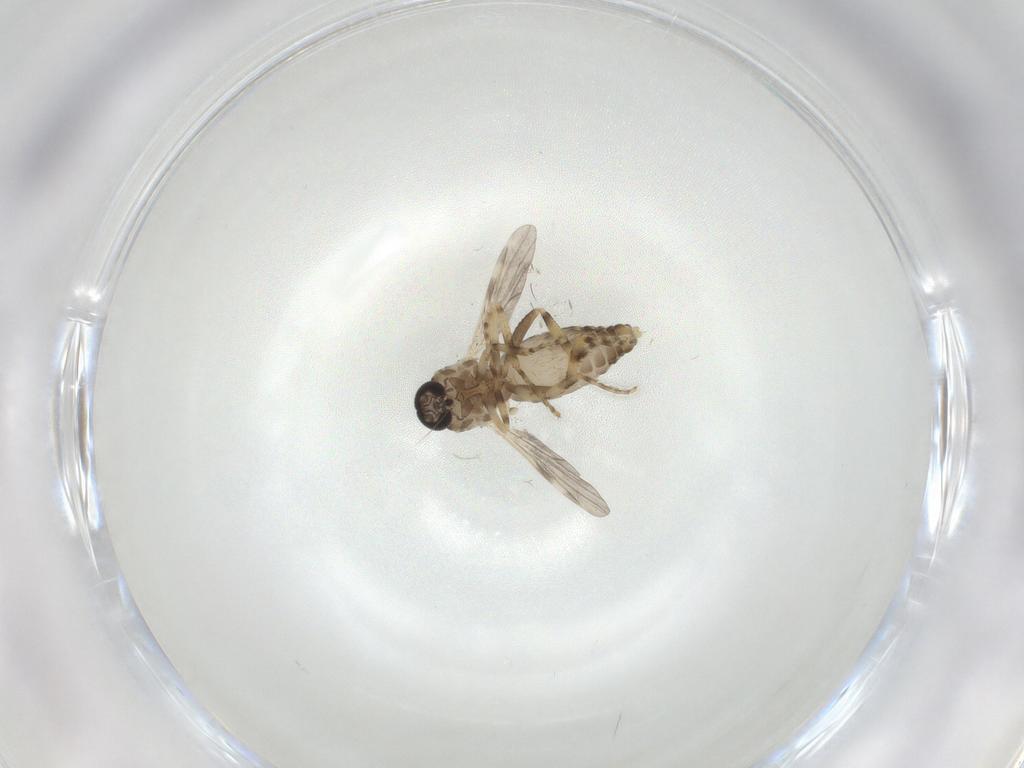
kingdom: Animalia
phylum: Arthropoda
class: Insecta
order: Diptera
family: Ceratopogonidae
